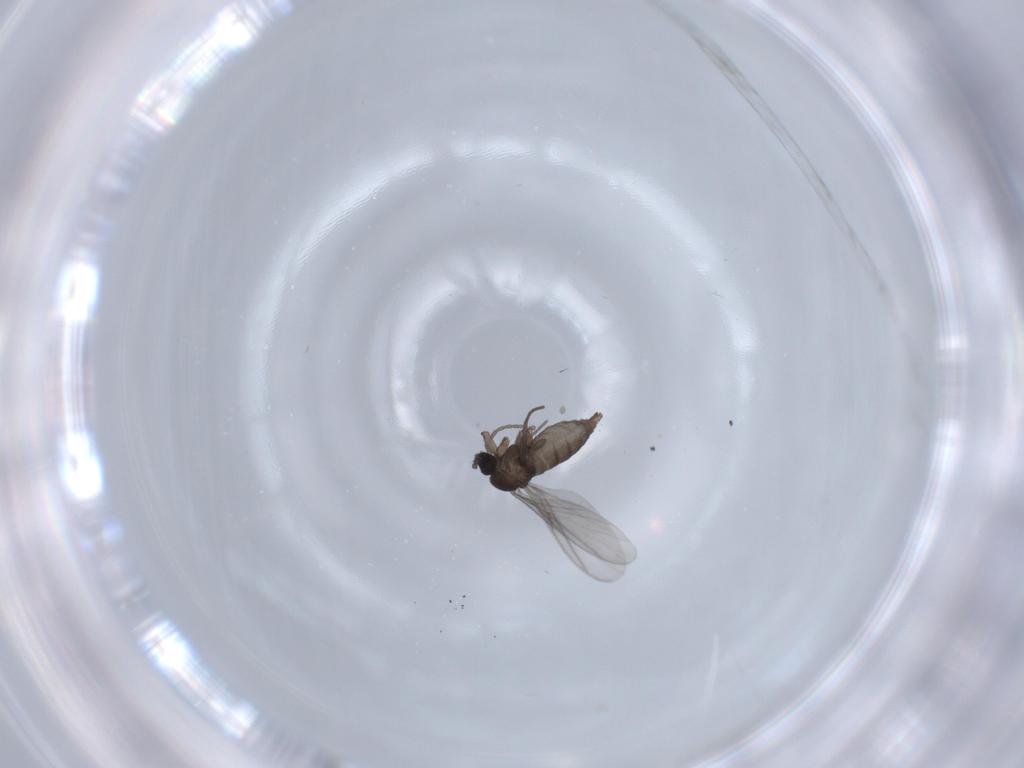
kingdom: Animalia
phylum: Arthropoda
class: Insecta
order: Diptera
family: Sciaridae
